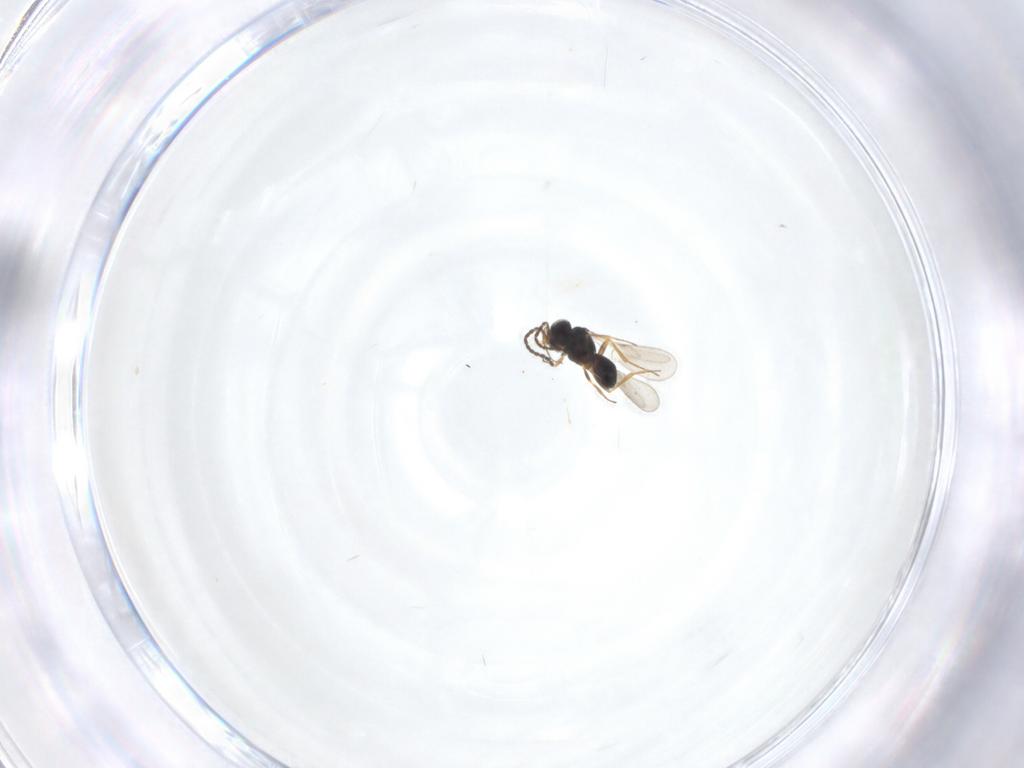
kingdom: Animalia
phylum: Arthropoda
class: Insecta
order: Hymenoptera
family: Scelionidae
